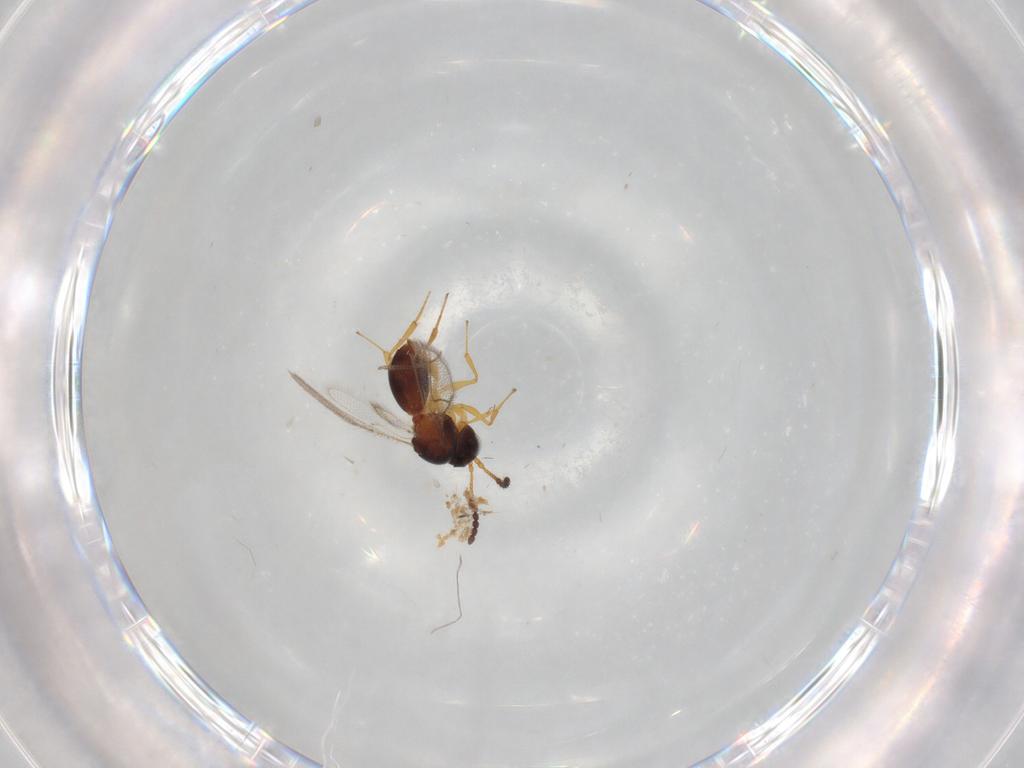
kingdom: Animalia
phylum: Arthropoda
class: Insecta
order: Hymenoptera
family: Figitidae
